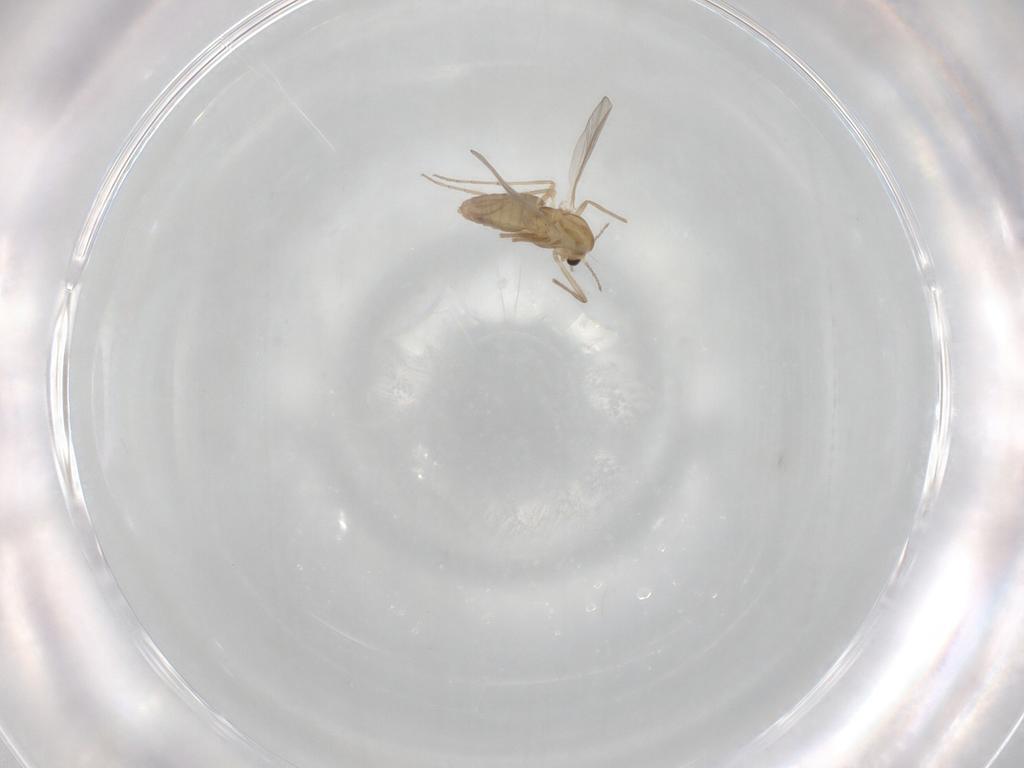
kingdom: Animalia
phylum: Arthropoda
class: Insecta
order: Diptera
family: Chironomidae
